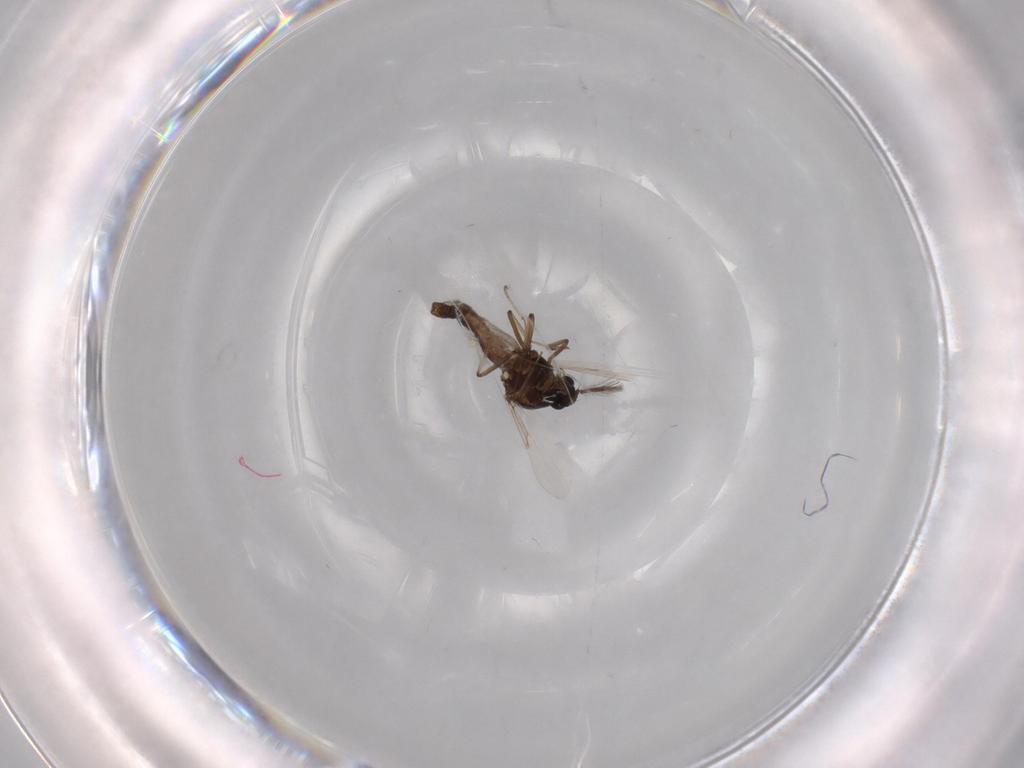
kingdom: Animalia
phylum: Arthropoda
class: Insecta
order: Diptera
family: Ceratopogonidae
